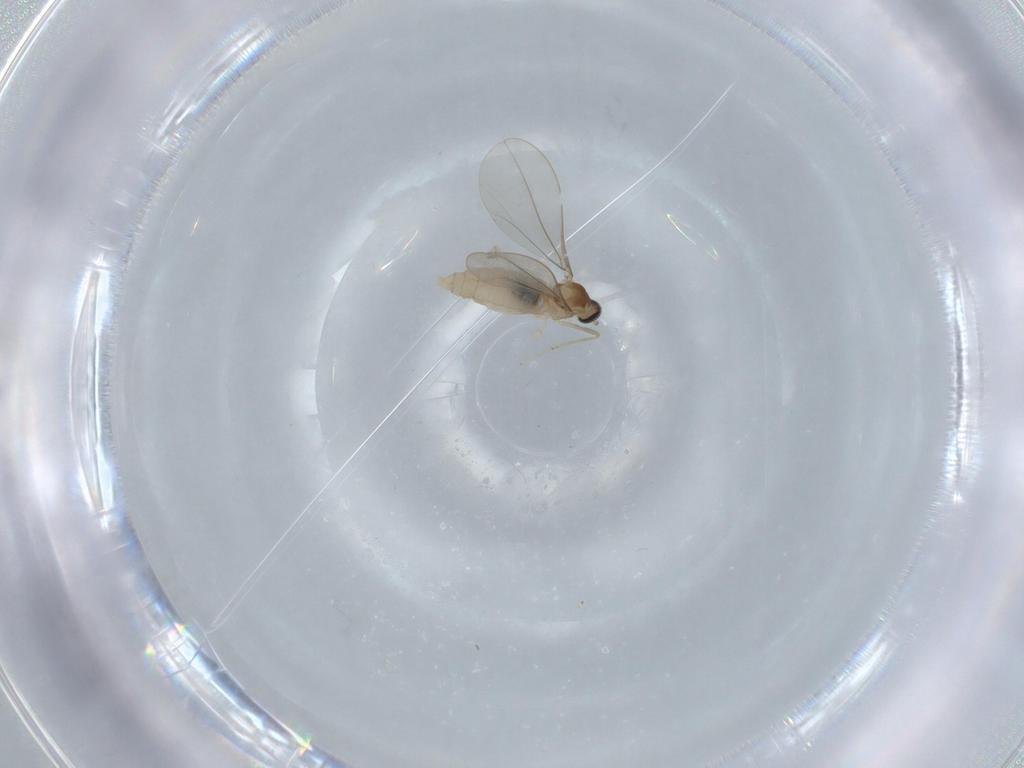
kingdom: Animalia
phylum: Arthropoda
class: Insecta
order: Diptera
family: Cecidomyiidae
